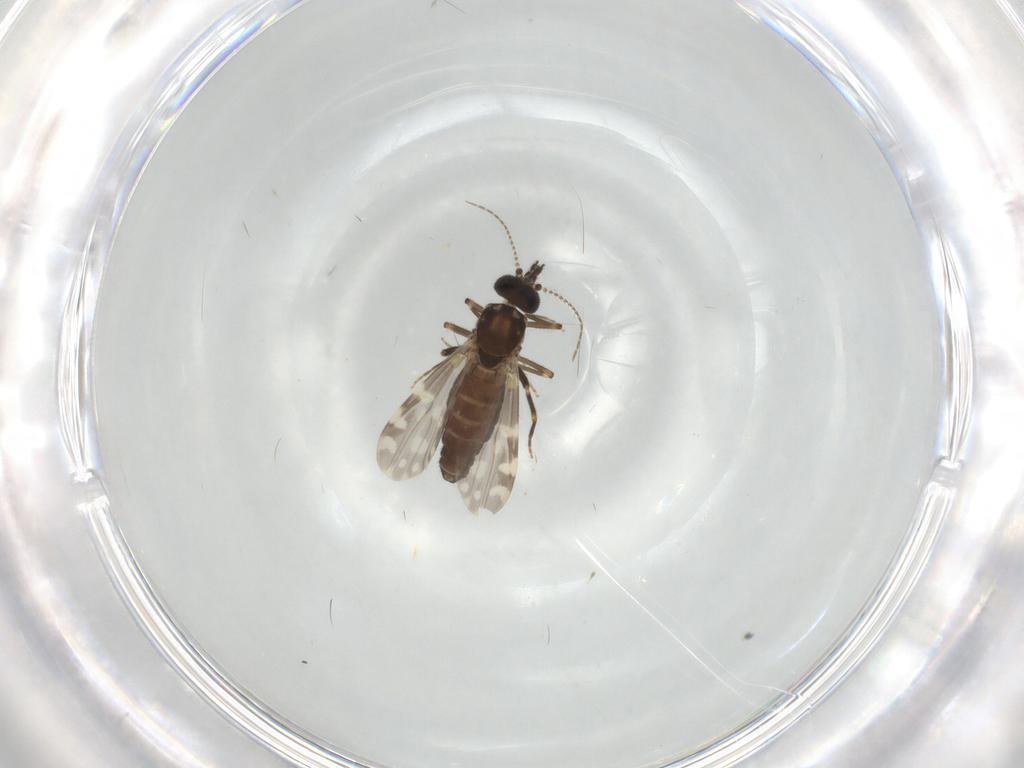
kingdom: Animalia
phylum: Arthropoda
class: Insecta
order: Diptera
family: Ceratopogonidae
